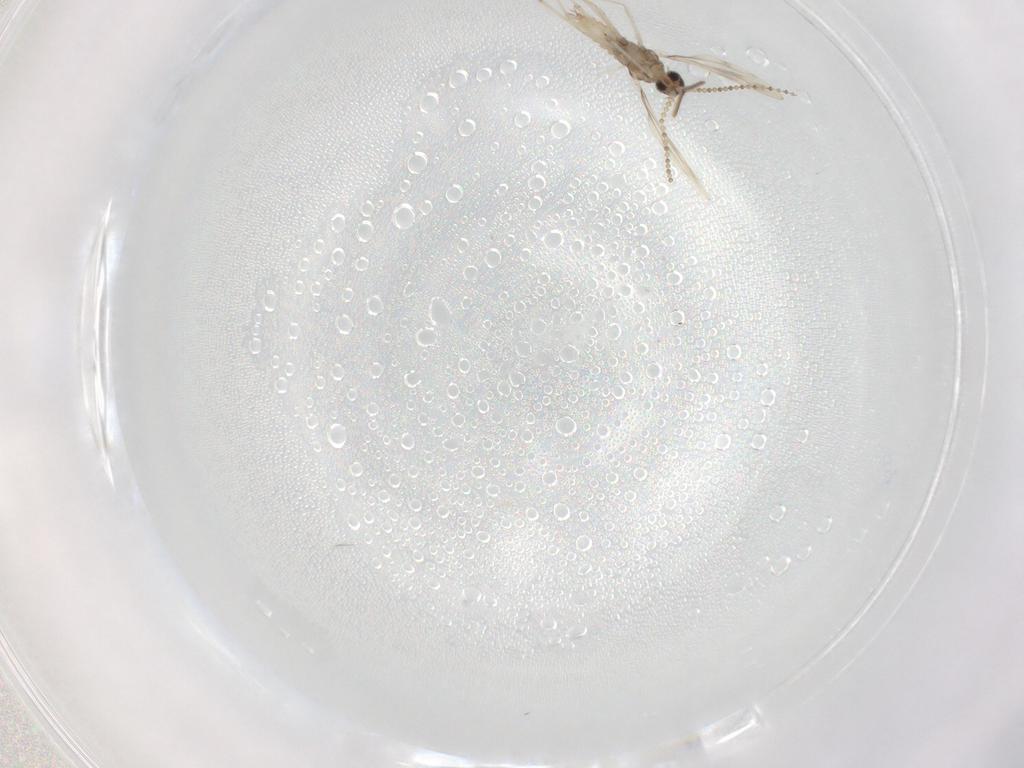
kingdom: Animalia
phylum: Arthropoda
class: Insecta
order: Diptera
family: Cecidomyiidae
